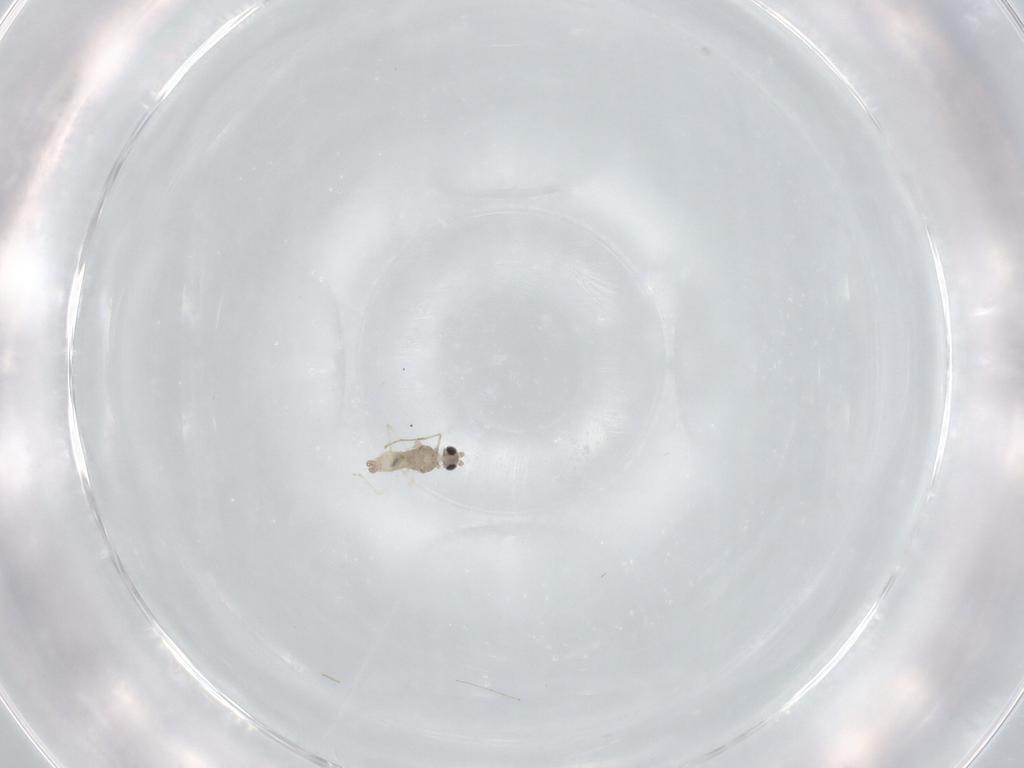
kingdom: Animalia
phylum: Arthropoda
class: Insecta
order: Diptera
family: Cecidomyiidae
